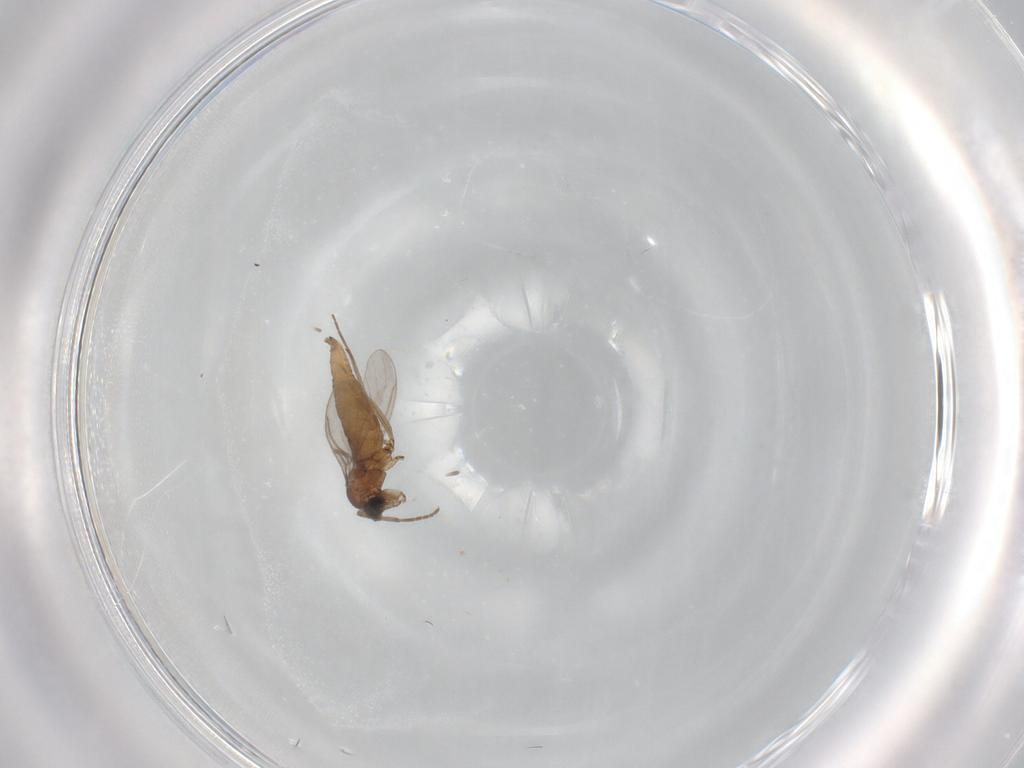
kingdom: Animalia
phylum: Arthropoda
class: Insecta
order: Diptera
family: Sciaridae
